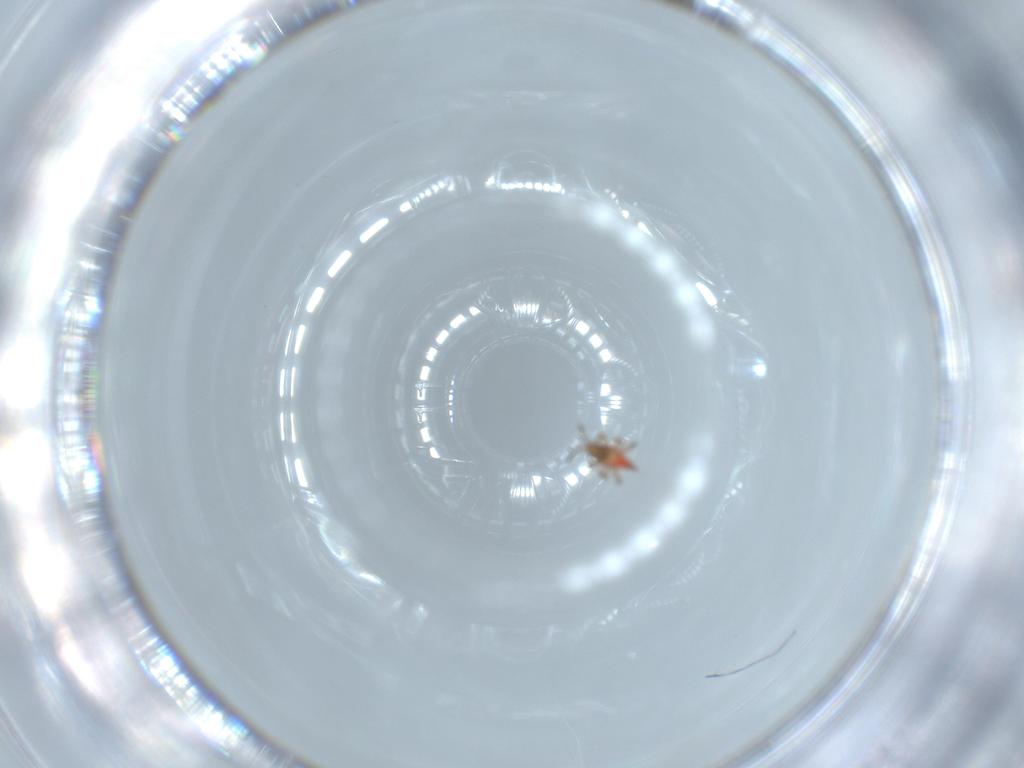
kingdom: Animalia
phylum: Arthropoda
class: Insecta
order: Thysanoptera
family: Phlaeothripidae
